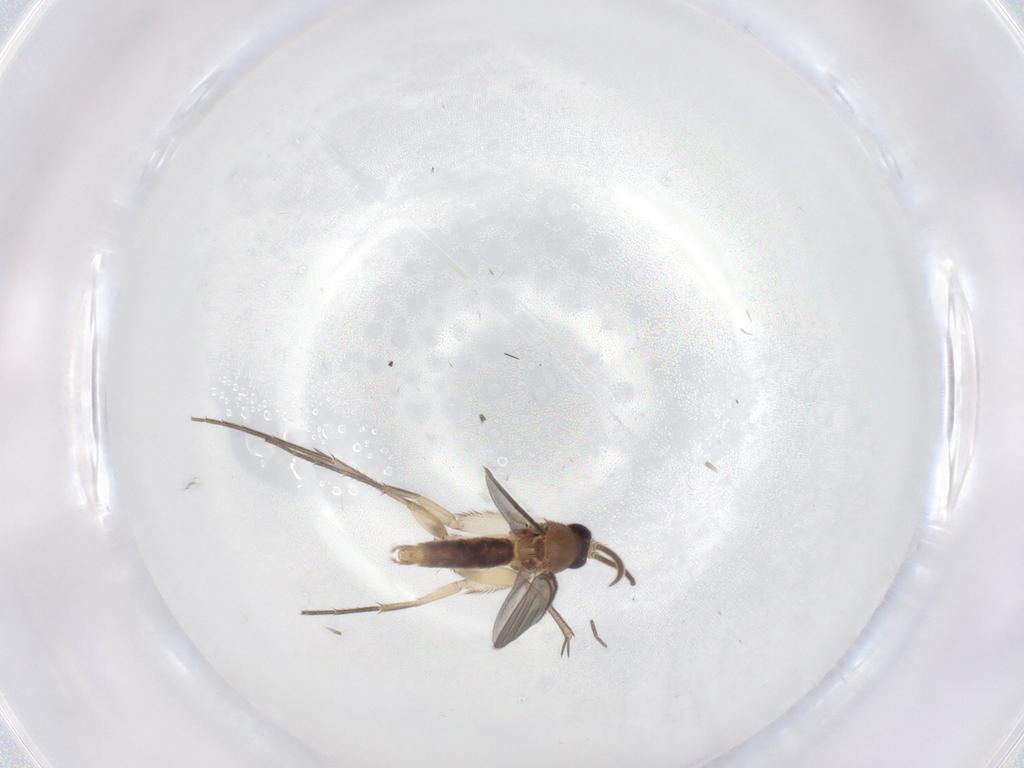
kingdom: Animalia
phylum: Arthropoda
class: Insecta
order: Diptera
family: Mycetophilidae
